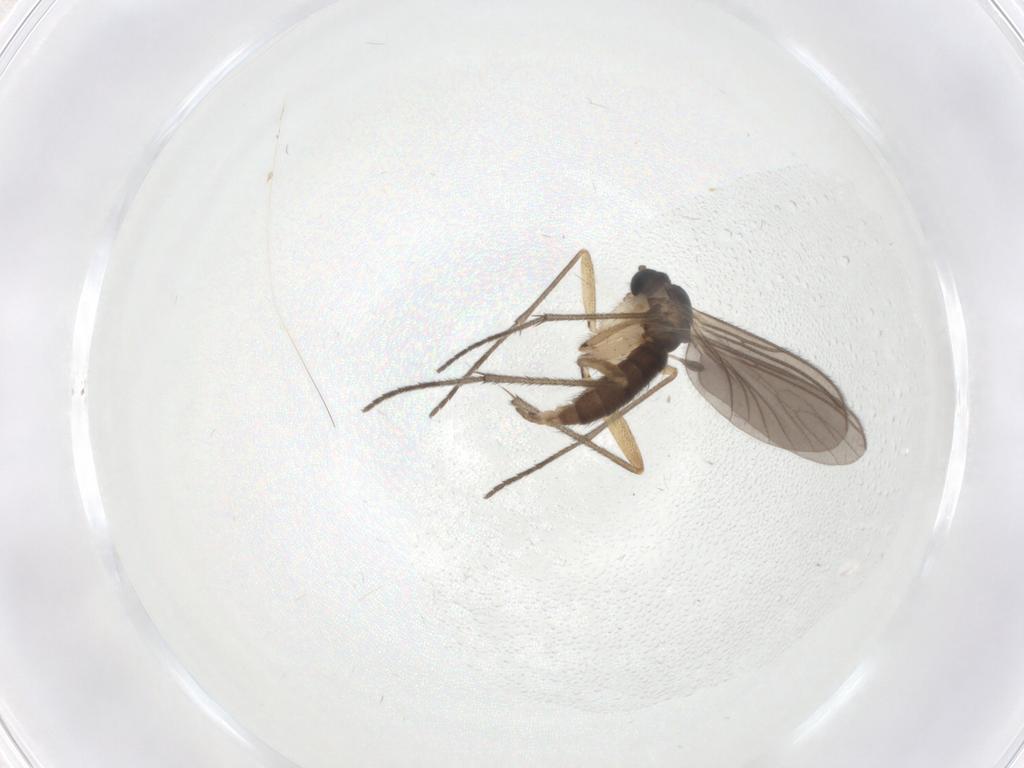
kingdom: Animalia
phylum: Arthropoda
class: Insecta
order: Diptera
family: Sciaridae
